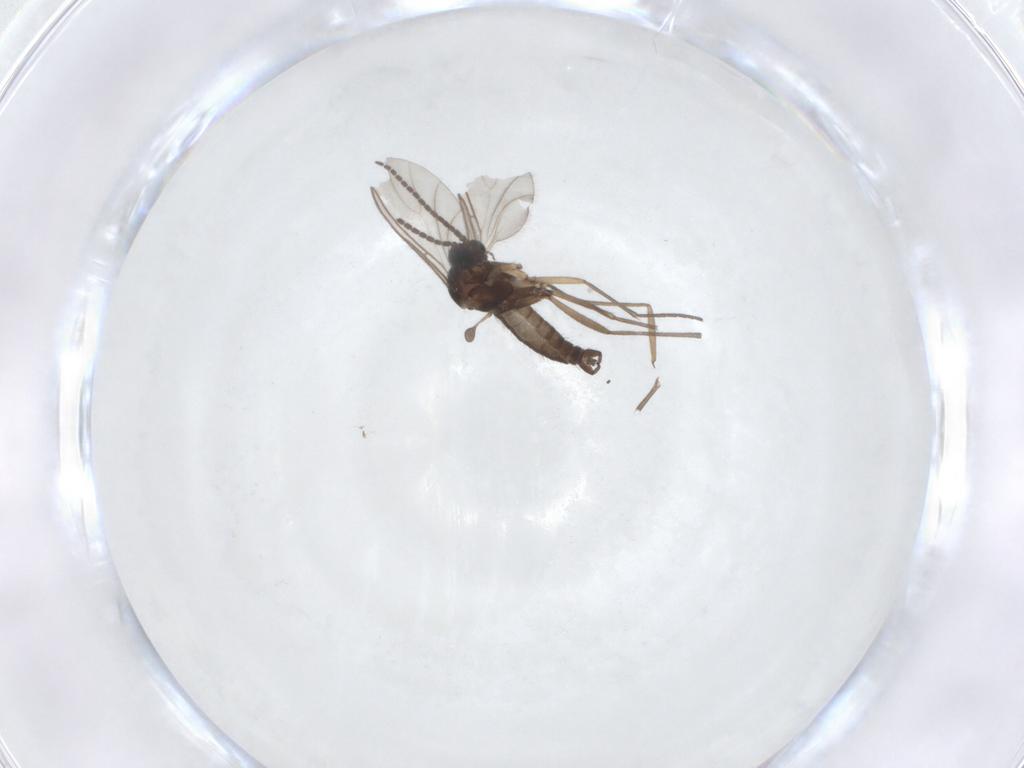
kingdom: Animalia
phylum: Arthropoda
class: Insecta
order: Diptera
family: Sciaridae
